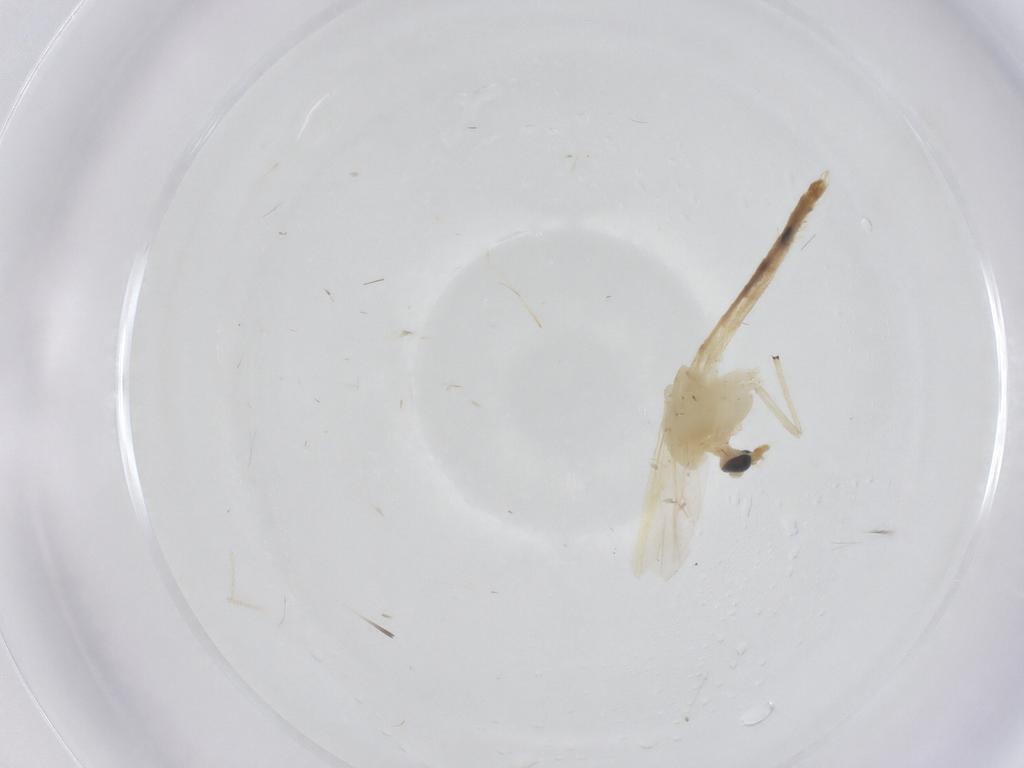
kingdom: Animalia
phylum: Arthropoda
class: Insecta
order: Diptera
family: Chironomidae
